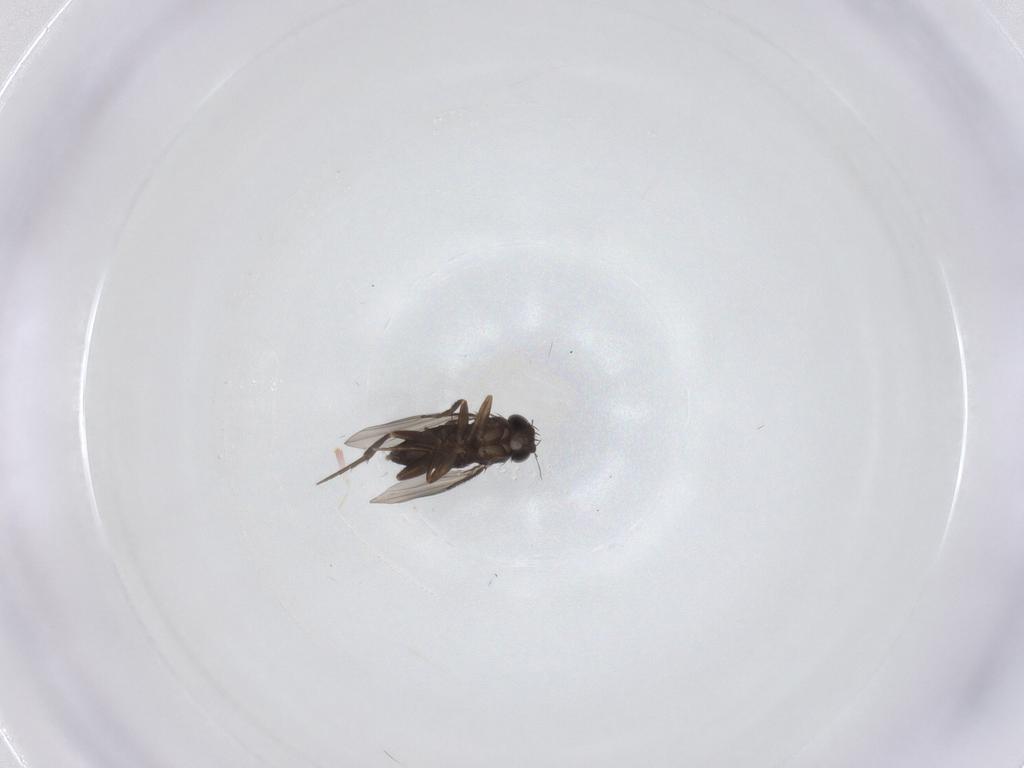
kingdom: Animalia
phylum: Arthropoda
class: Insecta
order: Diptera
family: Phoridae
